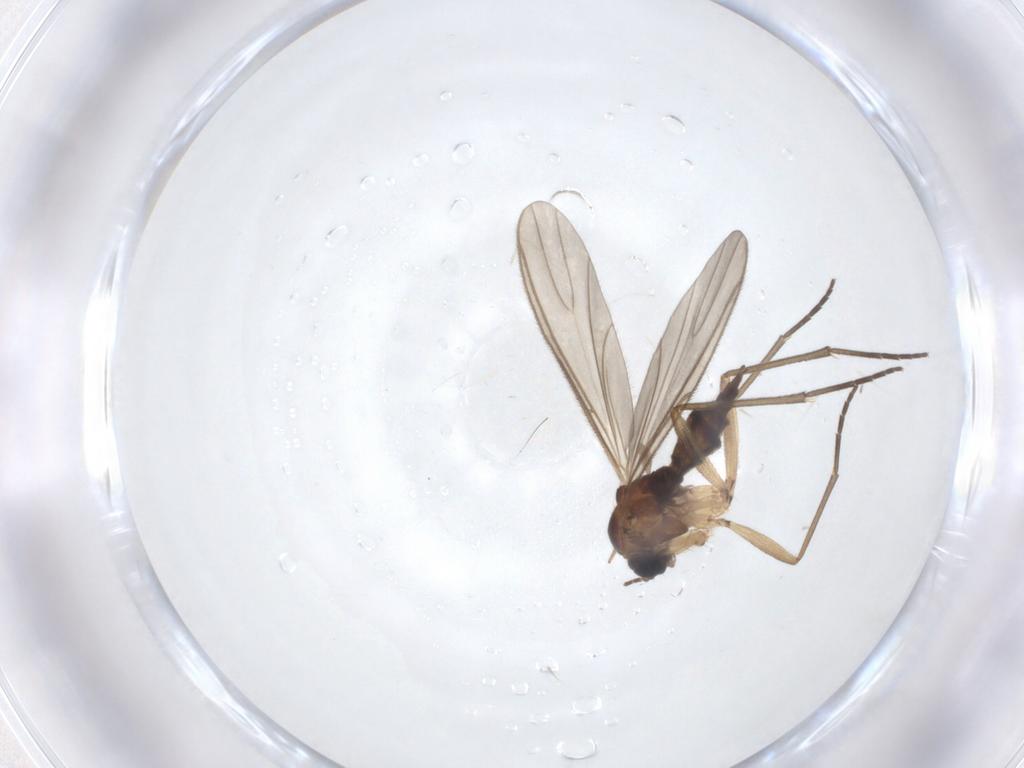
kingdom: Animalia
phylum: Arthropoda
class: Insecta
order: Diptera
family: Sciaridae
